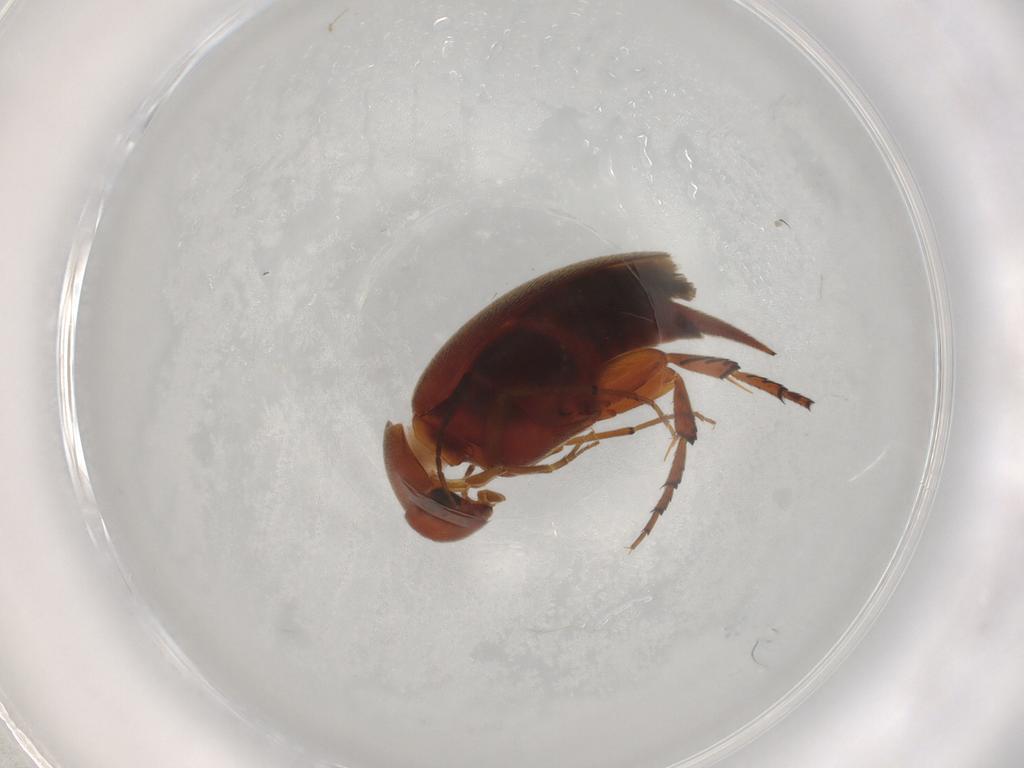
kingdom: Animalia
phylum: Arthropoda
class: Insecta
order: Coleoptera
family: Mordellidae
